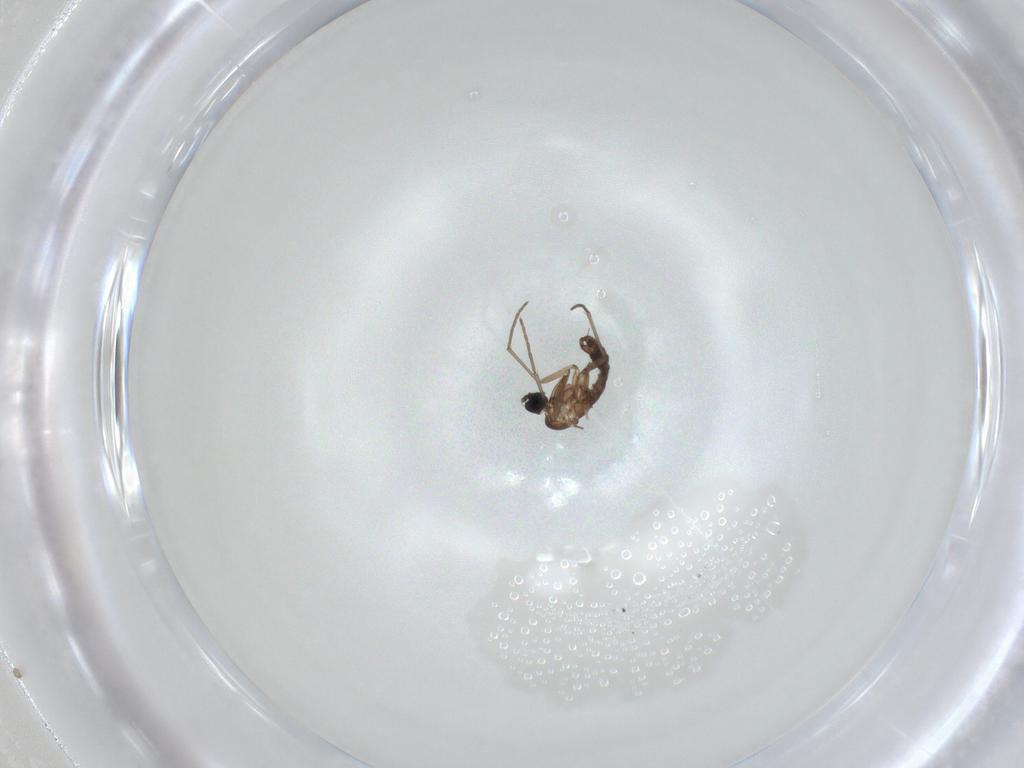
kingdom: Animalia
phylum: Arthropoda
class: Insecta
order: Diptera
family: Sciaridae
